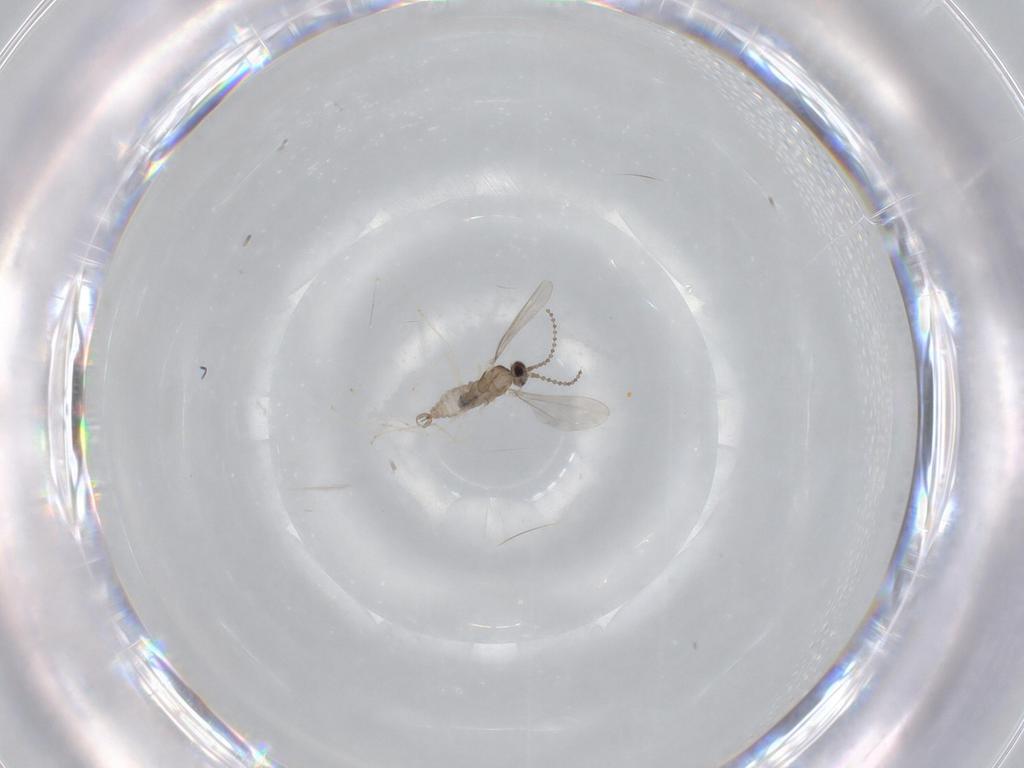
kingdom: Animalia
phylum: Arthropoda
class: Insecta
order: Diptera
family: Cecidomyiidae
